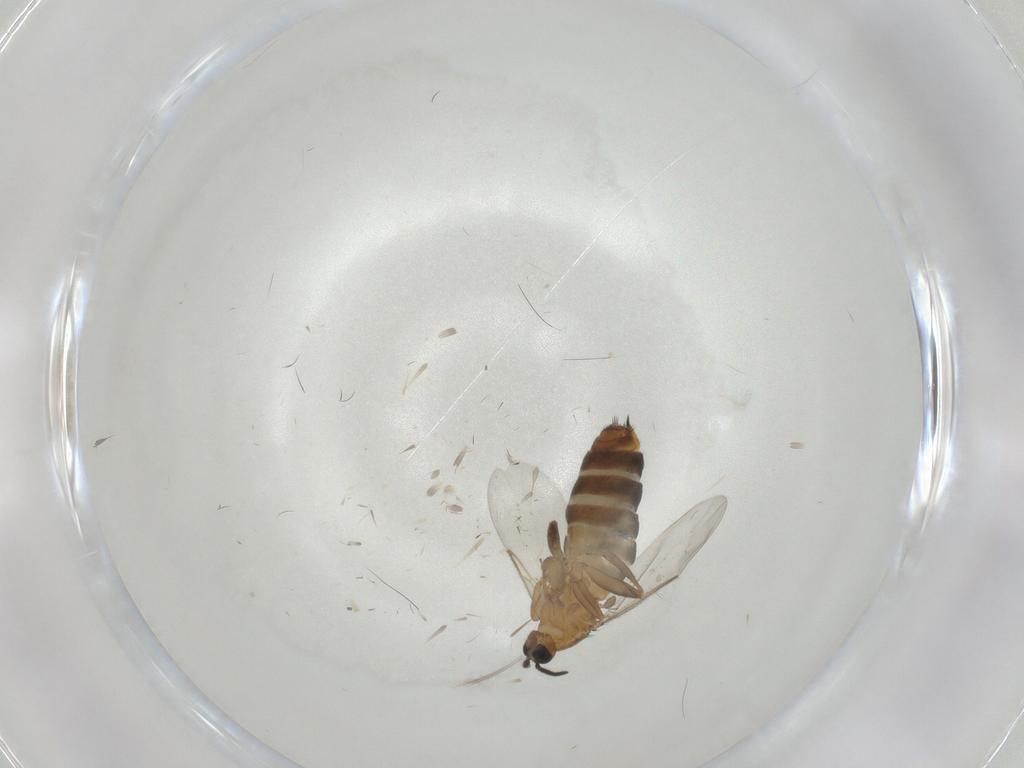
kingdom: Animalia
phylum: Arthropoda
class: Insecta
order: Diptera
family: Scatopsidae
